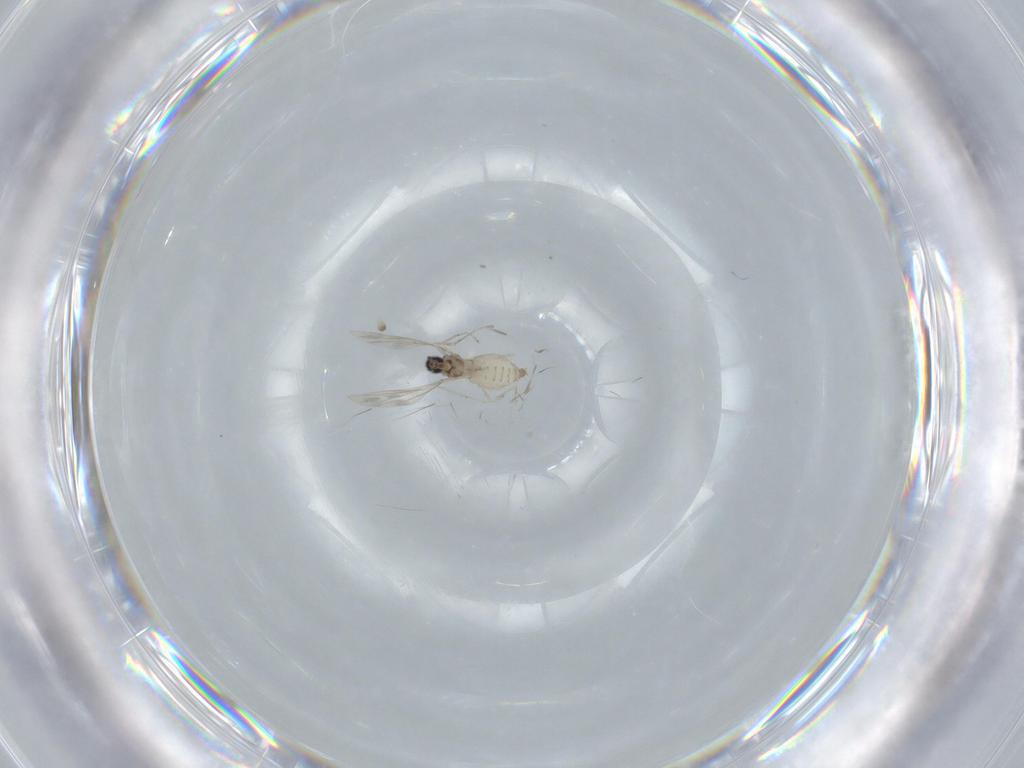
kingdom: Animalia
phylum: Arthropoda
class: Insecta
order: Diptera
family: Cecidomyiidae
